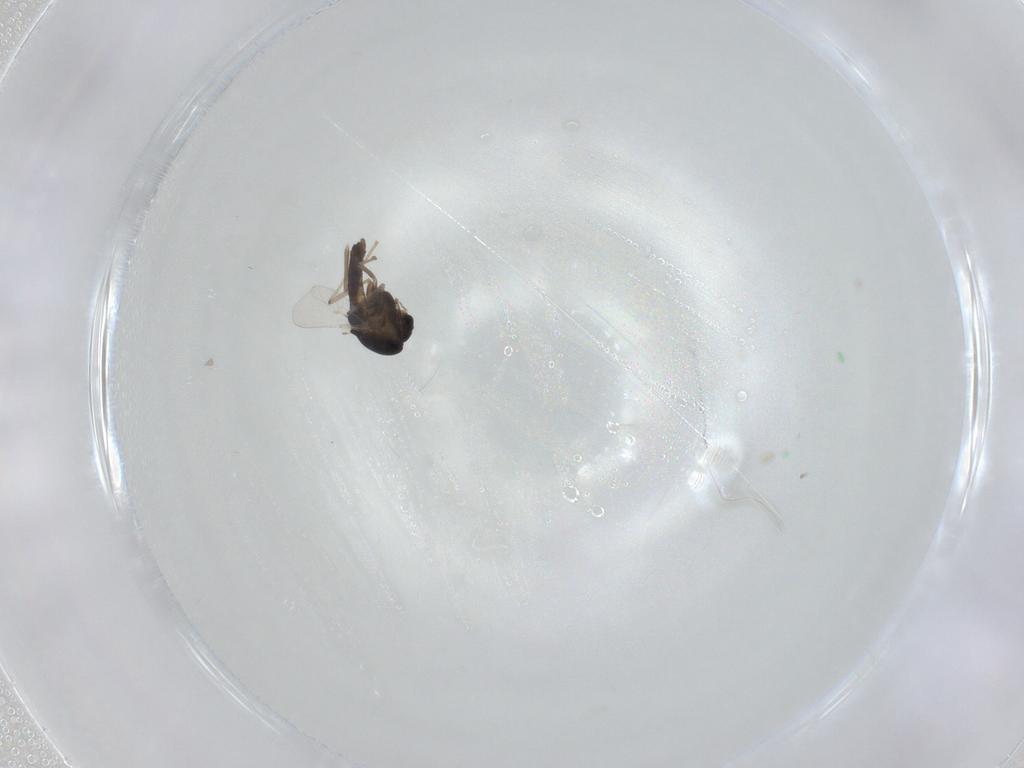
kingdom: Animalia
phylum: Arthropoda
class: Insecta
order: Diptera
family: Chironomidae
